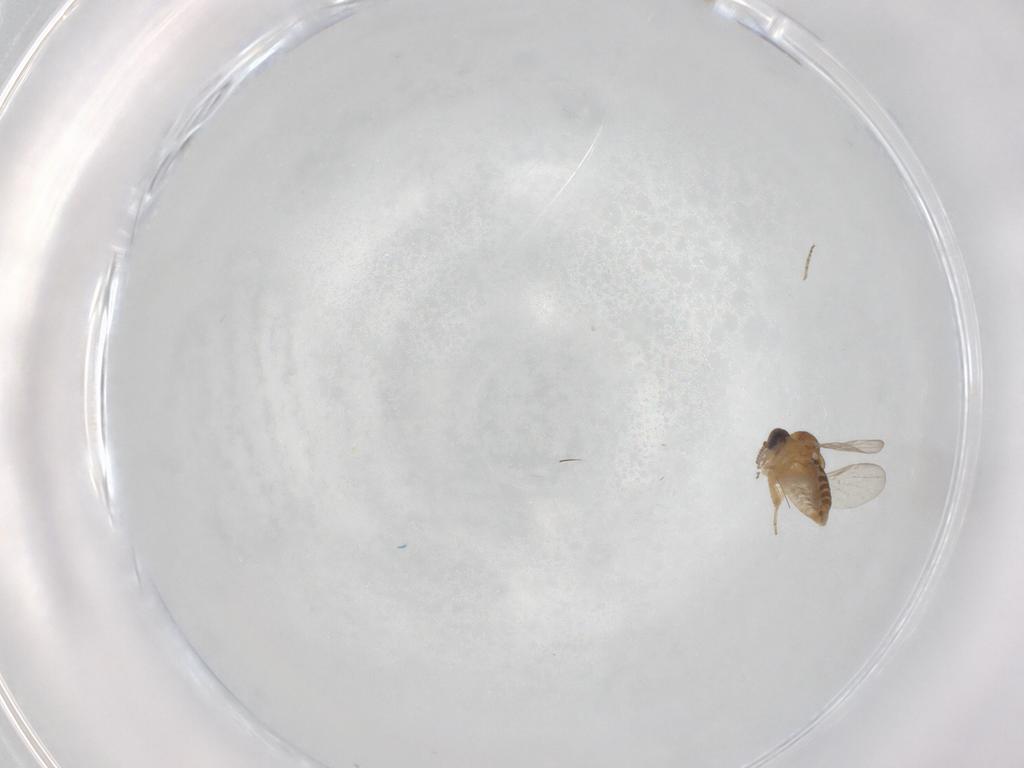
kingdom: Animalia
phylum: Arthropoda
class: Insecta
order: Diptera
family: Ceratopogonidae
